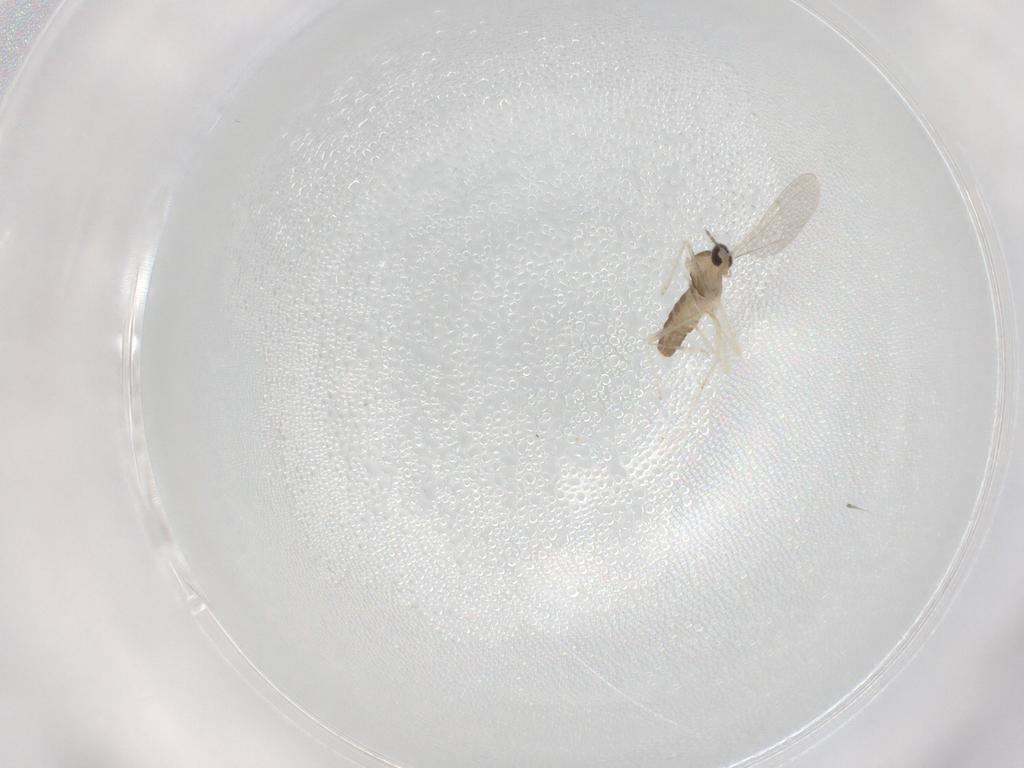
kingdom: Animalia
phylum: Arthropoda
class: Insecta
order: Diptera
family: Cecidomyiidae
